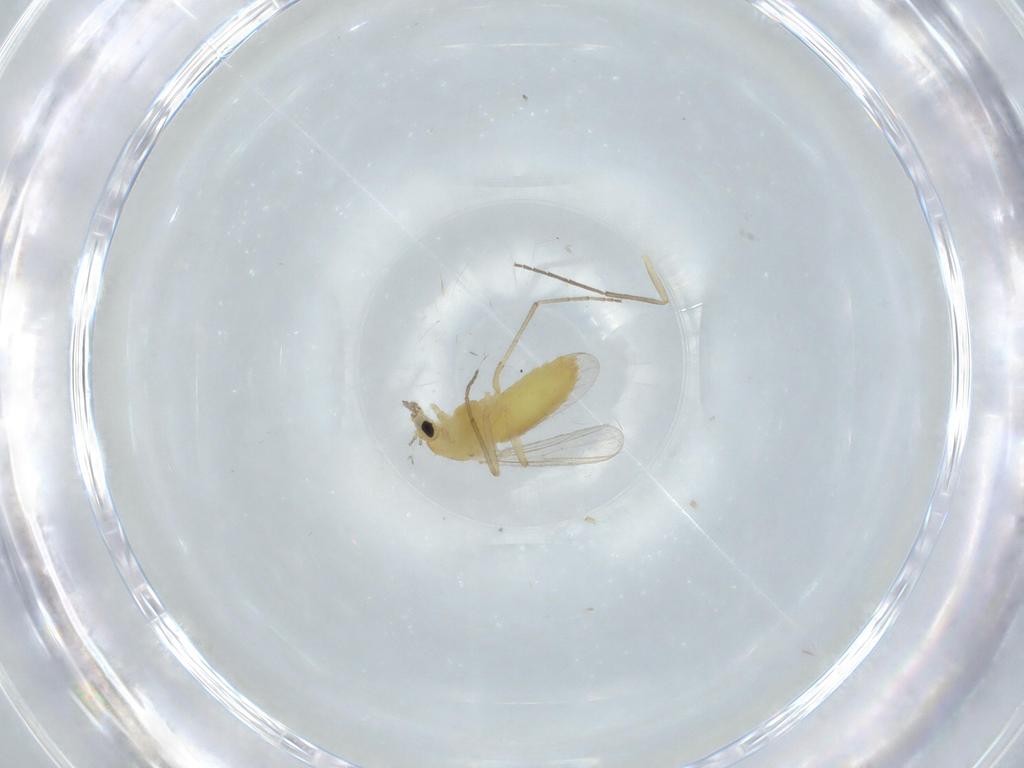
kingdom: Animalia
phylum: Arthropoda
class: Insecta
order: Diptera
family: Chironomidae
